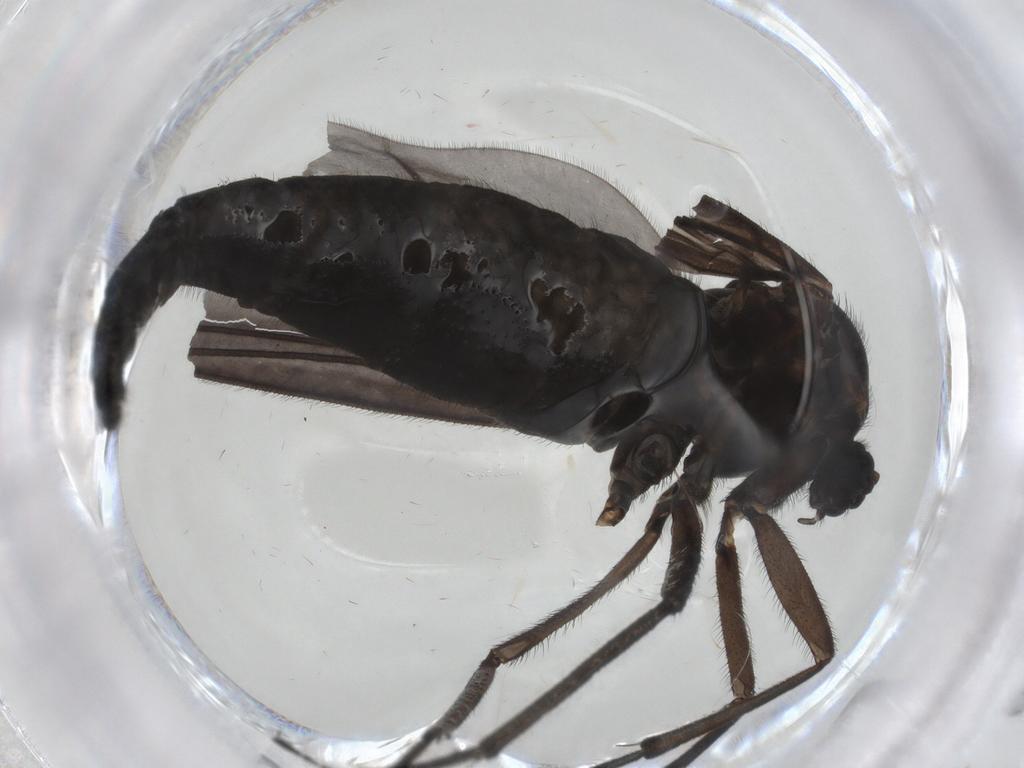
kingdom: Animalia
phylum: Arthropoda
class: Insecta
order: Diptera
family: Sciaridae
